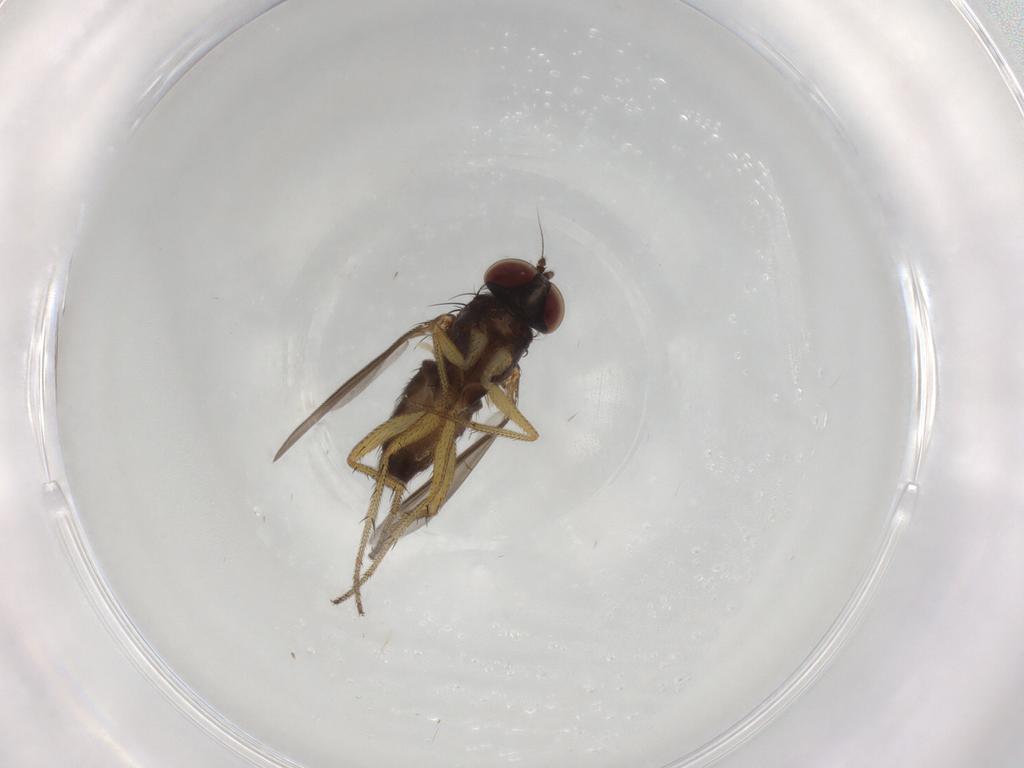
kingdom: Animalia
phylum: Arthropoda
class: Insecta
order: Diptera
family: Dolichopodidae
